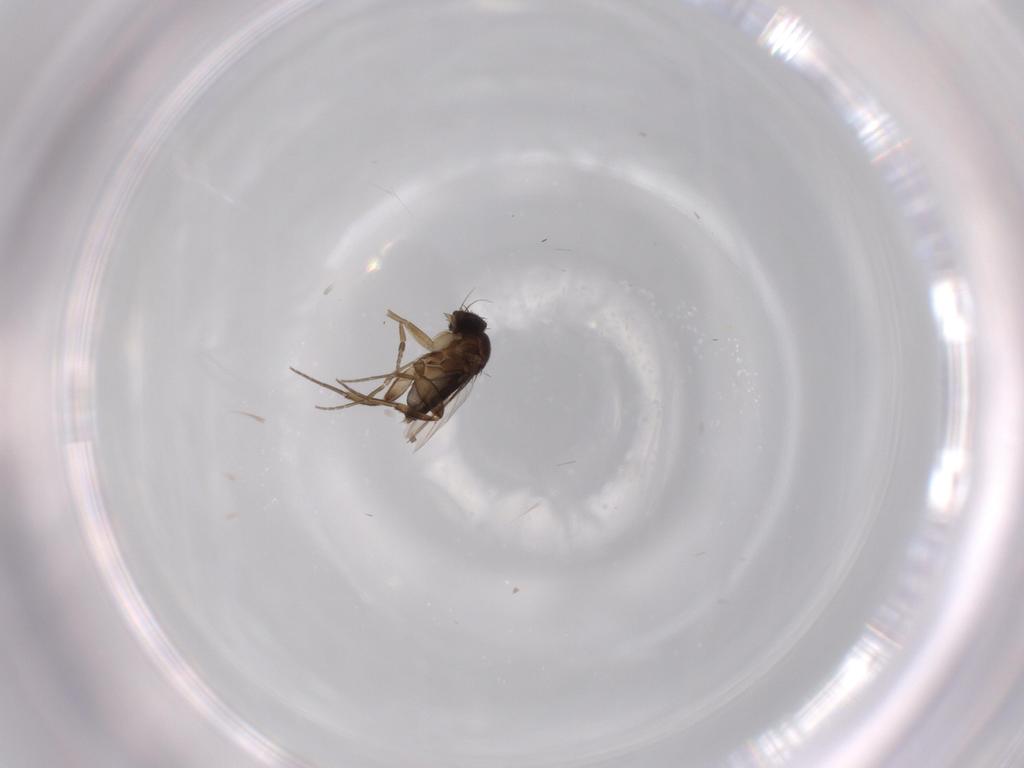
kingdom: Animalia
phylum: Arthropoda
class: Insecta
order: Diptera
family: Phoridae
